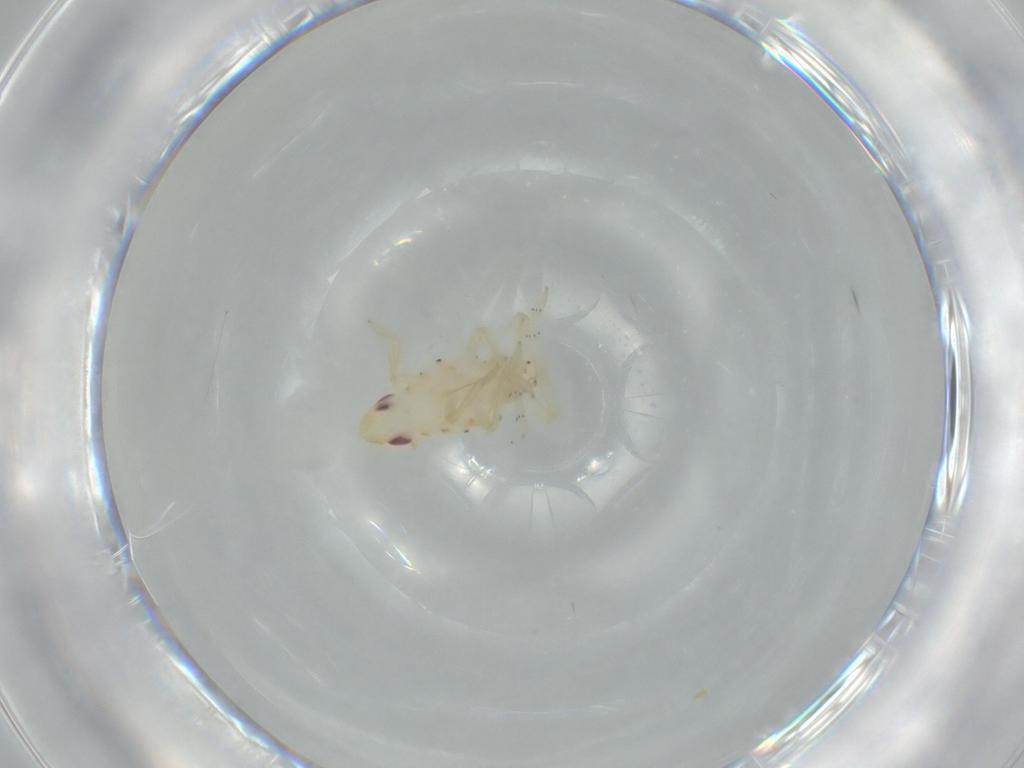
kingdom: Animalia
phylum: Arthropoda
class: Insecta
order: Hemiptera
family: Tropiduchidae
